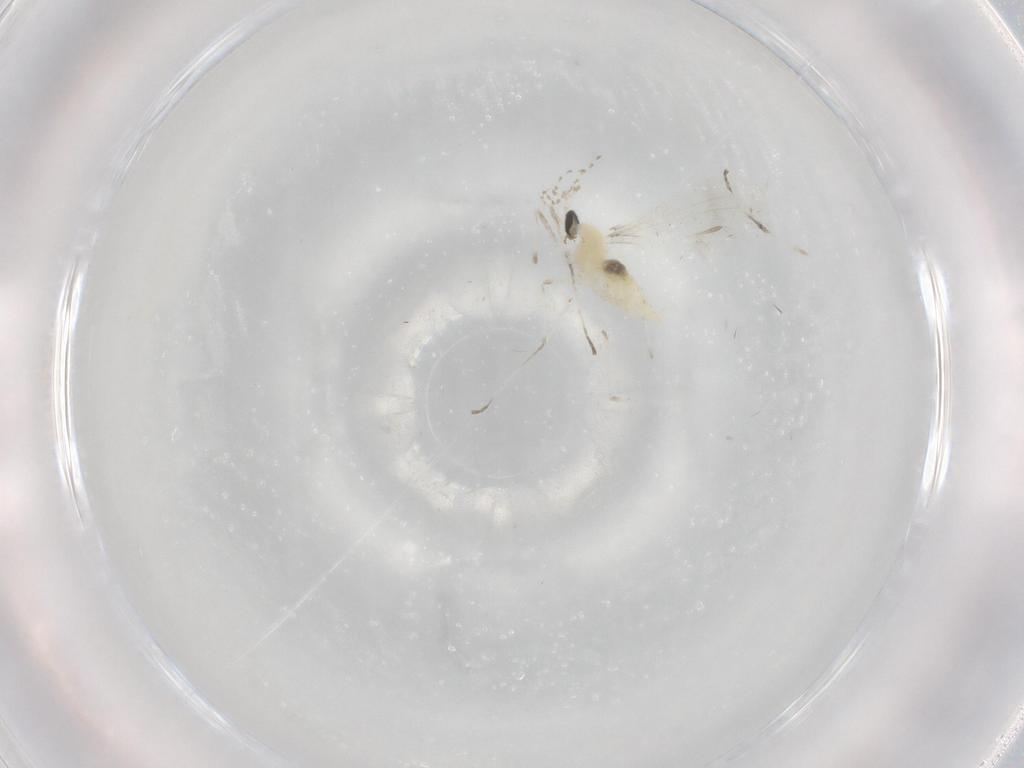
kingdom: Animalia
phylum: Arthropoda
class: Insecta
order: Diptera
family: Cecidomyiidae
